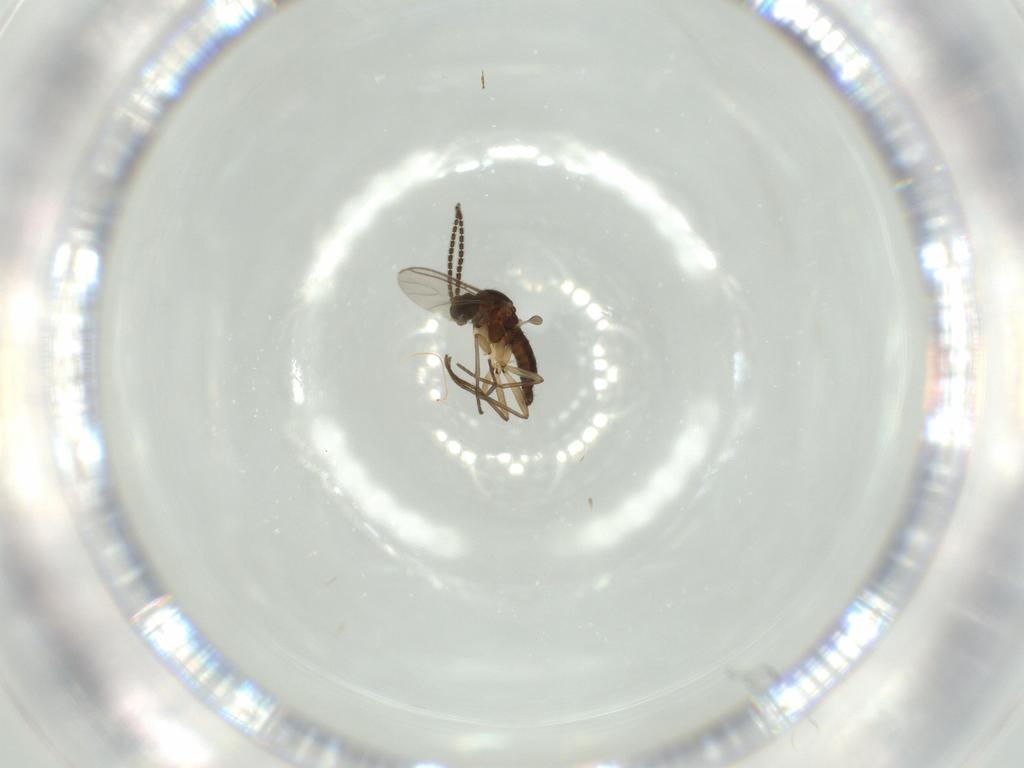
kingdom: Animalia
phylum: Arthropoda
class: Insecta
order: Diptera
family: Sciaridae
